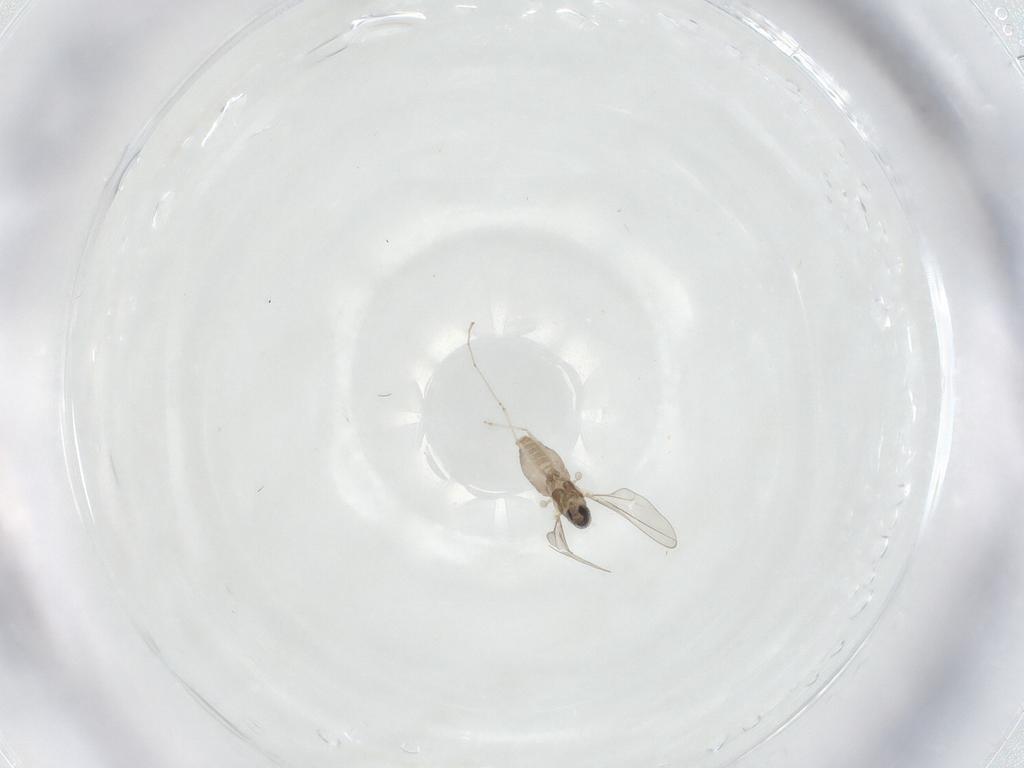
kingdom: Animalia
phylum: Arthropoda
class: Insecta
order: Diptera
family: Cecidomyiidae
